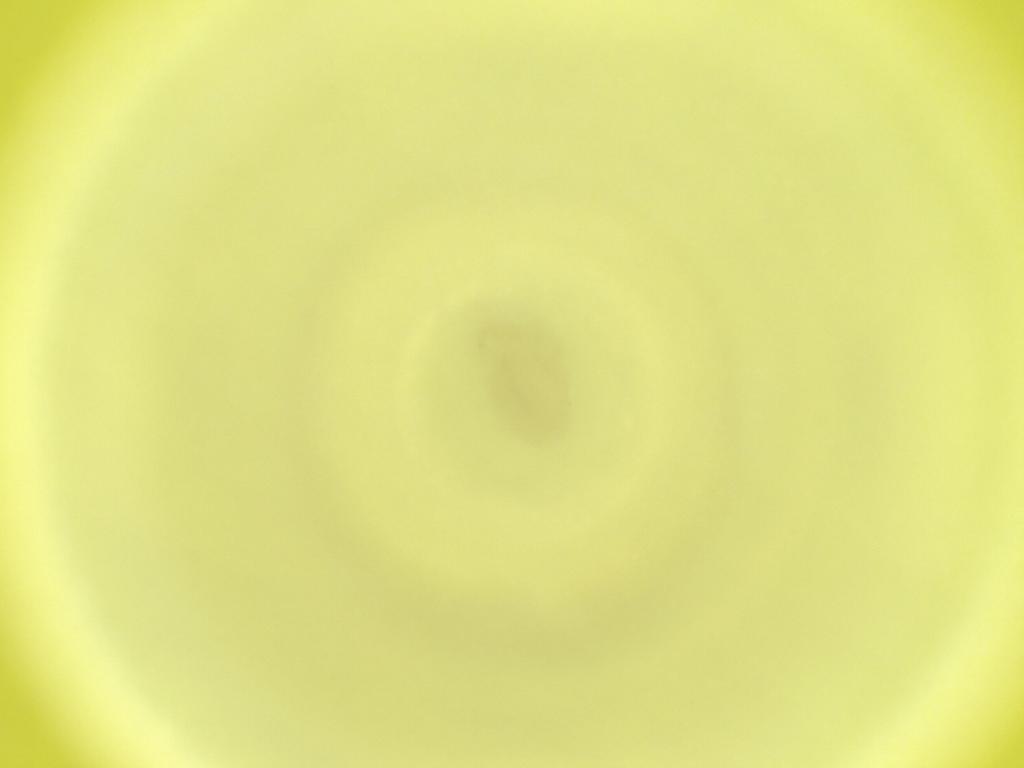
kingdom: Animalia
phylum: Arthropoda
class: Insecta
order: Diptera
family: Cecidomyiidae
